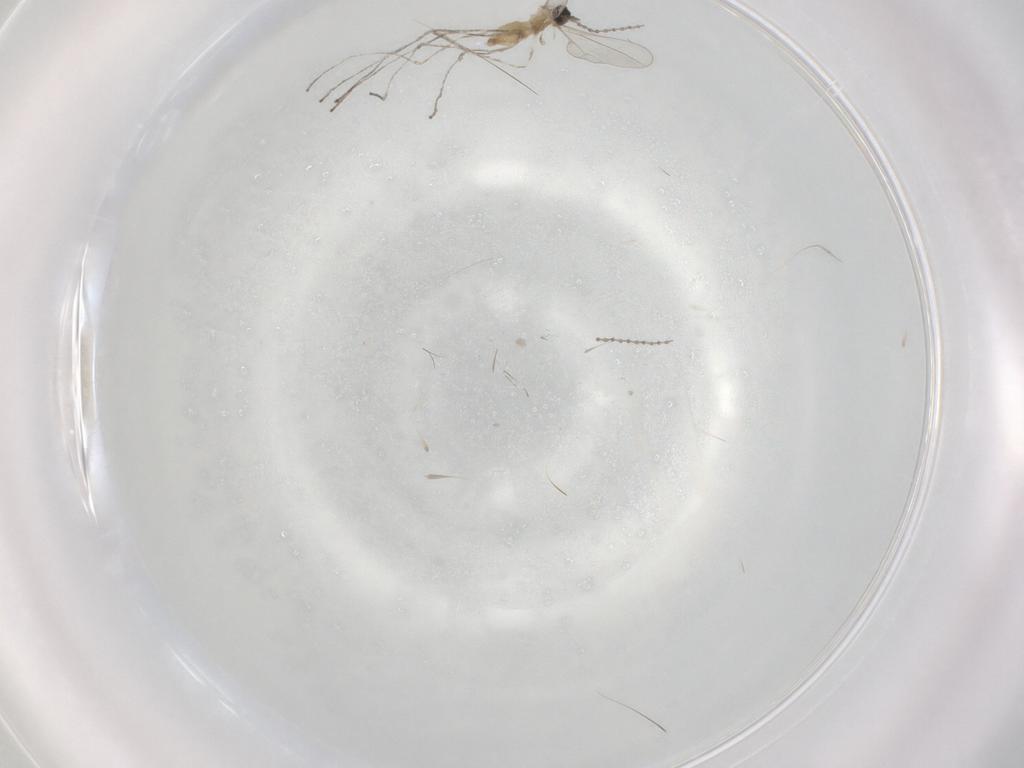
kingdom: Animalia
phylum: Arthropoda
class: Insecta
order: Diptera
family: Cecidomyiidae
